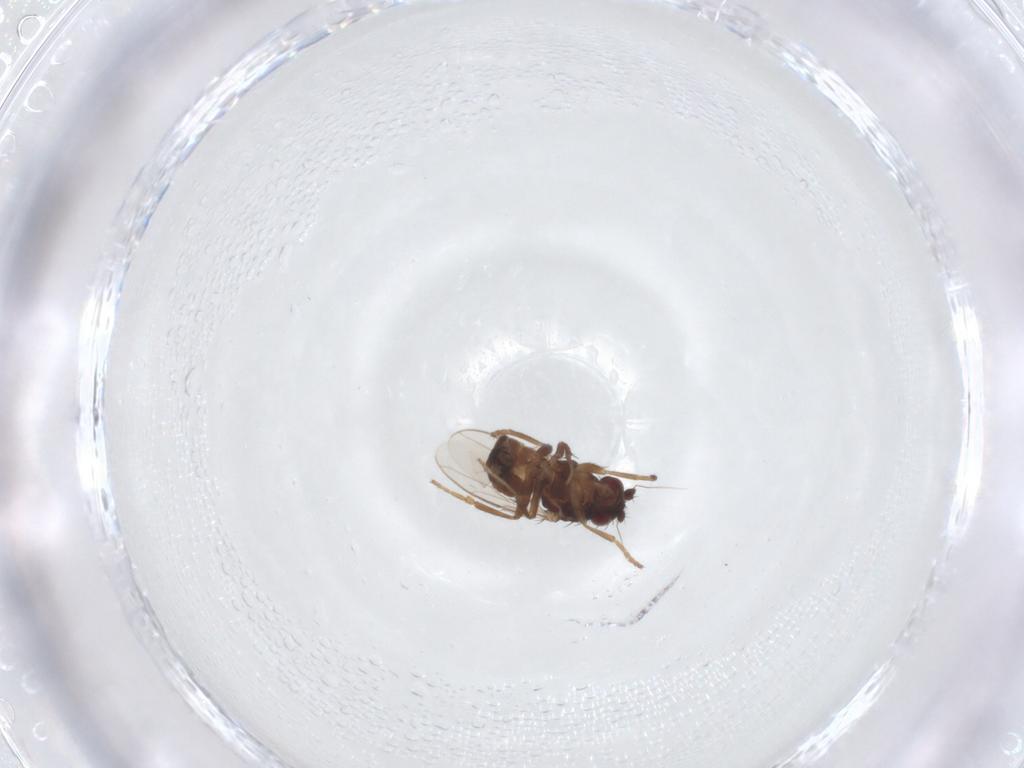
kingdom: Animalia
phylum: Arthropoda
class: Insecta
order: Diptera
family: Sphaeroceridae
